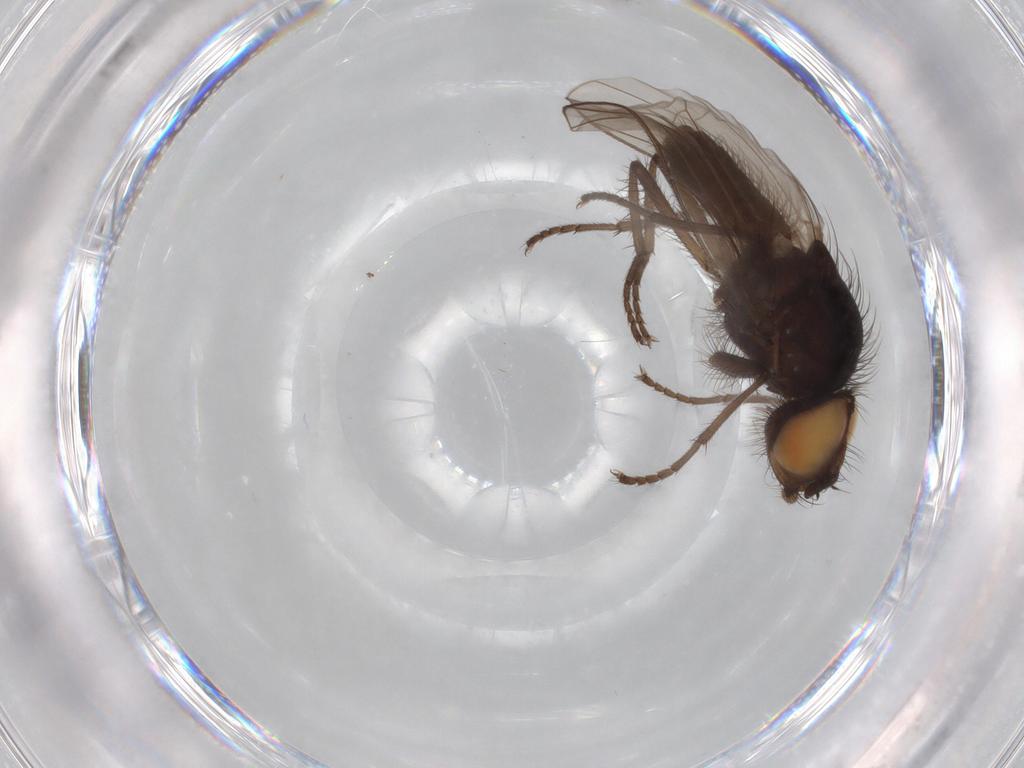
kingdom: Animalia
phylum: Arthropoda
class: Insecta
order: Diptera
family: Anthomyiidae
